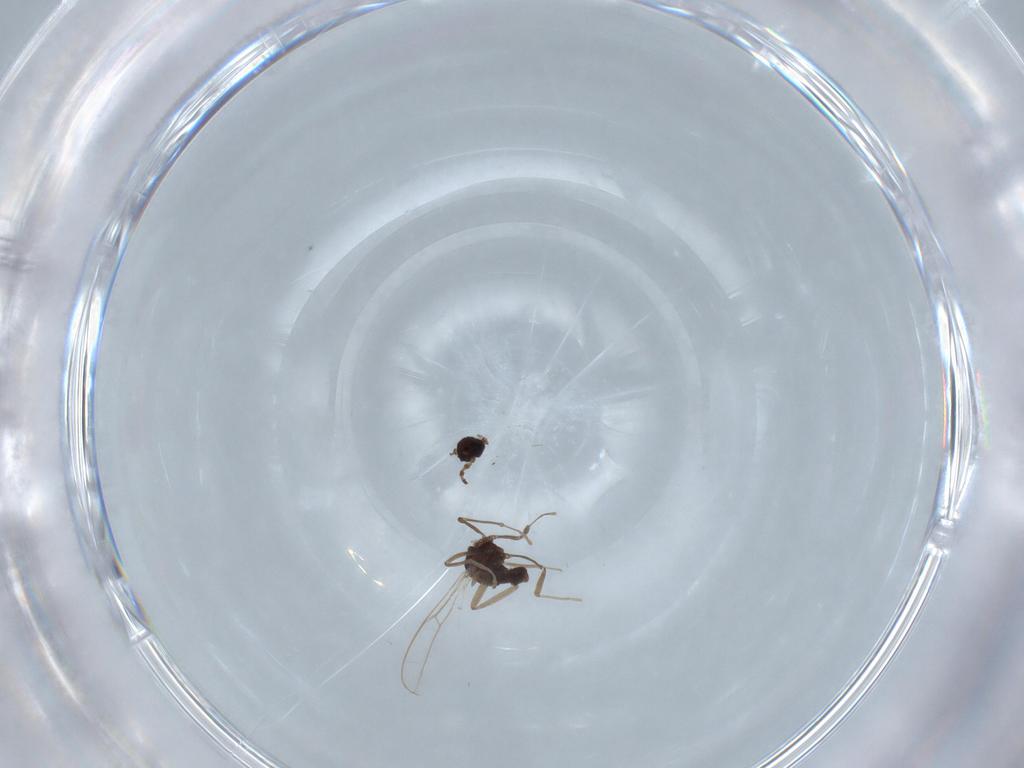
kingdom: Animalia
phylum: Arthropoda
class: Insecta
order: Diptera
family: Cecidomyiidae
